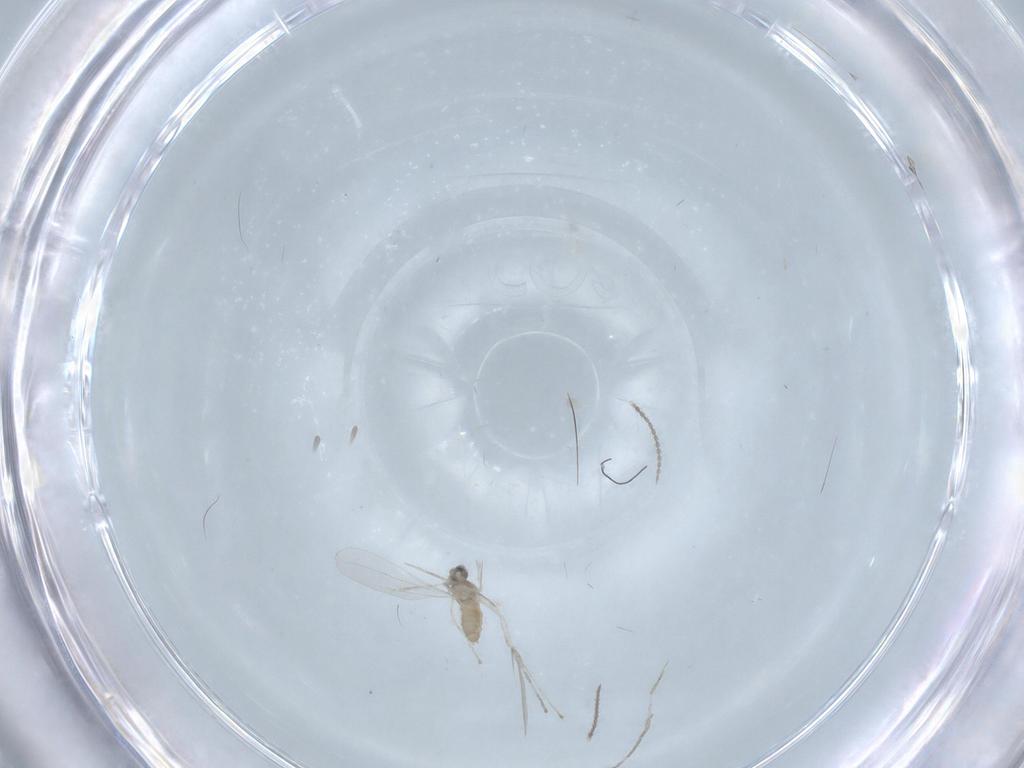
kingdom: Animalia
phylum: Arthropoda
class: Insecta
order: Diptera
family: Cecidomyiidae
